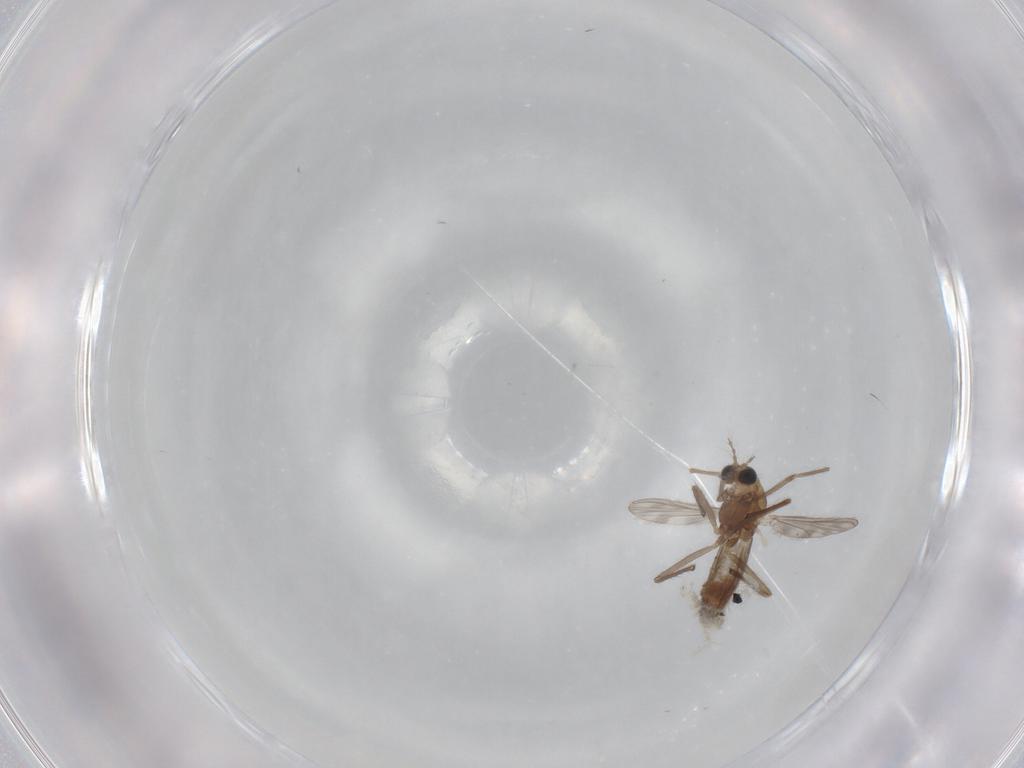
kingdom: Animalia
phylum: Arthropoda
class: Insecta
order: Diptera
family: Chironomidae
